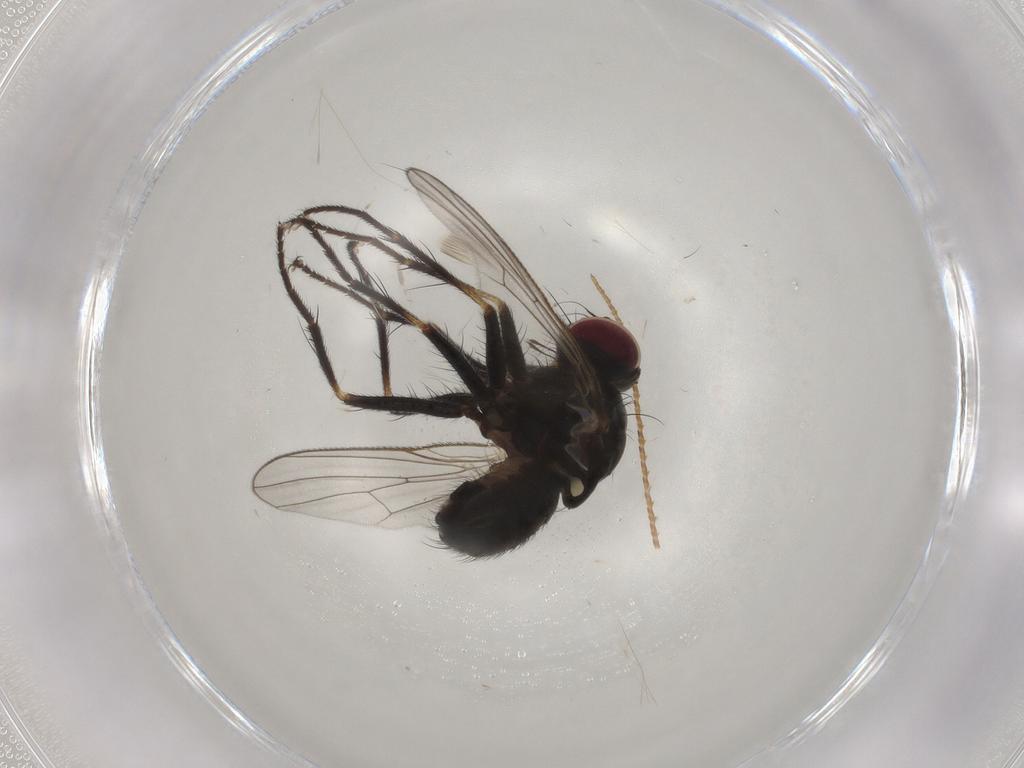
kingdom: Animalia
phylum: Arthropoda
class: Insecta
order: Diptera
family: Muscidae
